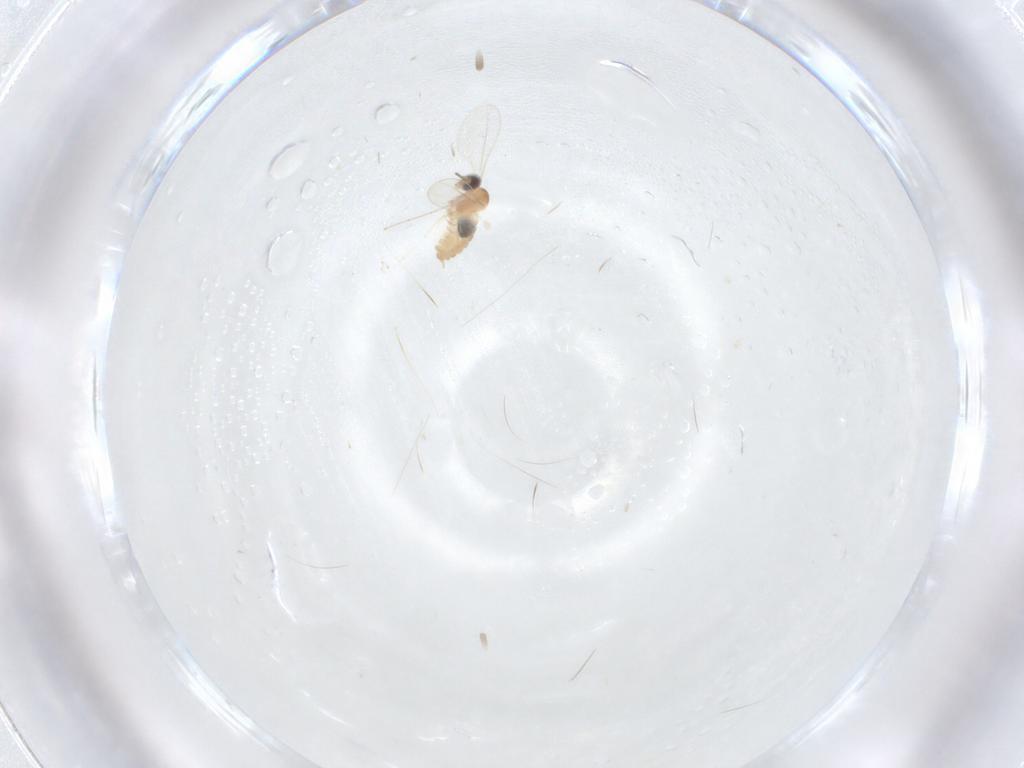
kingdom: Animalia
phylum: Arthropoda
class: Insecta
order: Diptera
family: Cecidomyiidae
